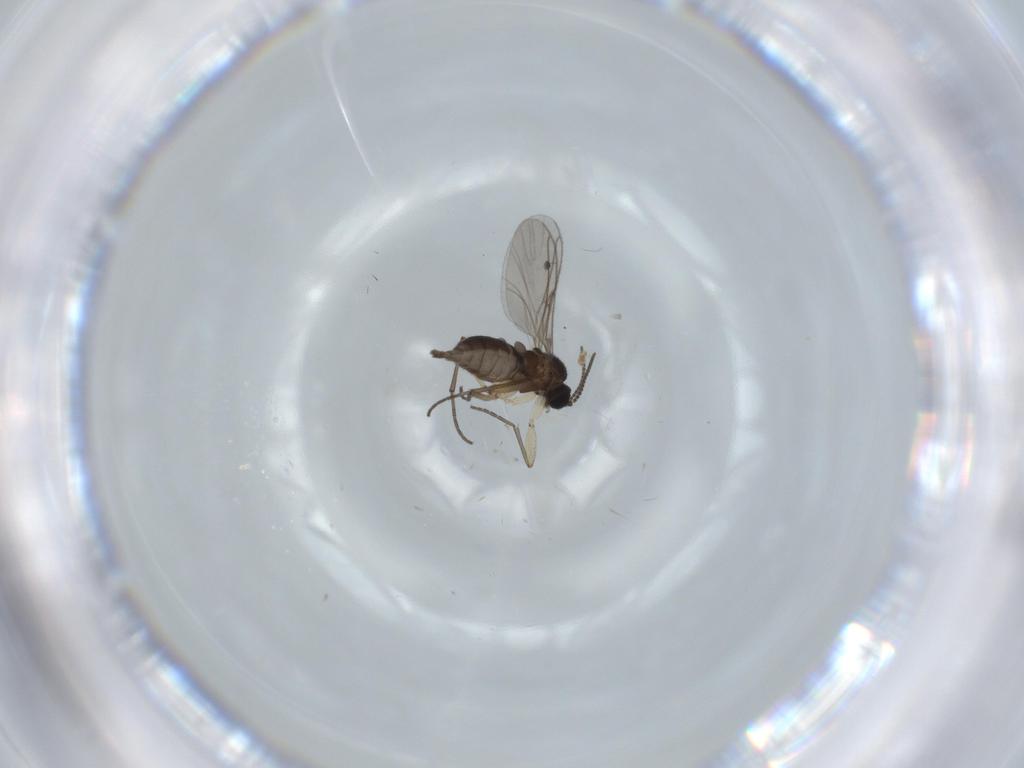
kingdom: Animalia
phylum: Arthropoda
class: Insecta
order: Diptera
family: Sciaridae
